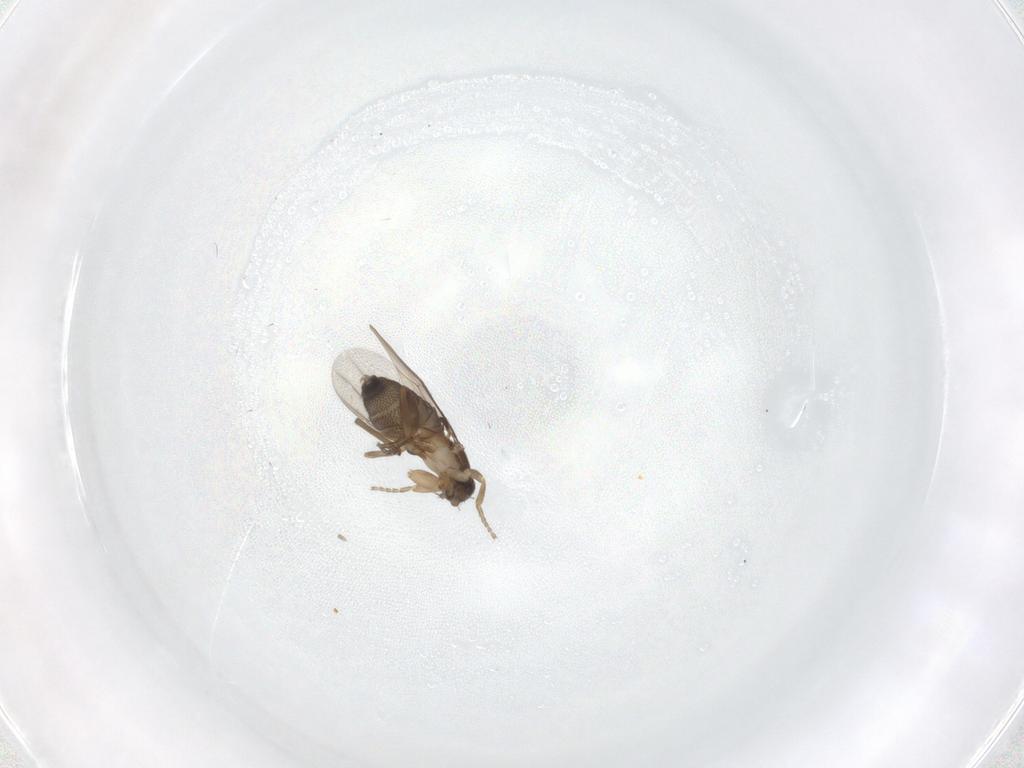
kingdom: Animalia
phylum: Arthropoda
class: Insecta
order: Diptera
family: Phoridae
